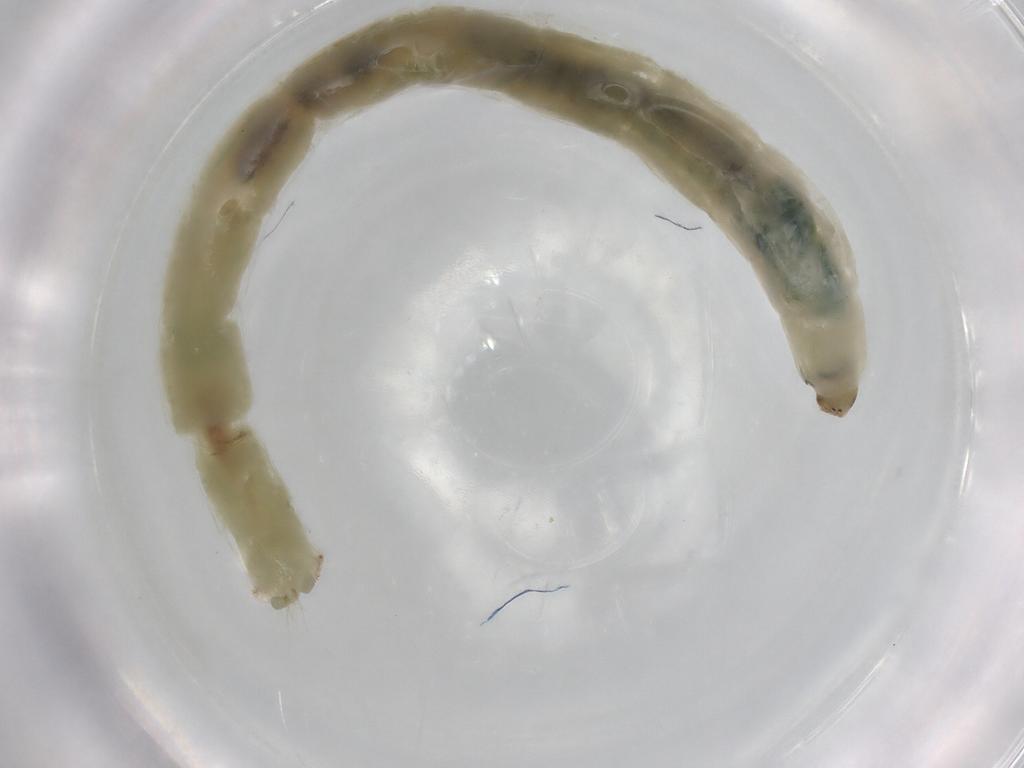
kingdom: Animalia
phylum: Arthropoda
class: Insecta
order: Diptera
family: Chironomidae
